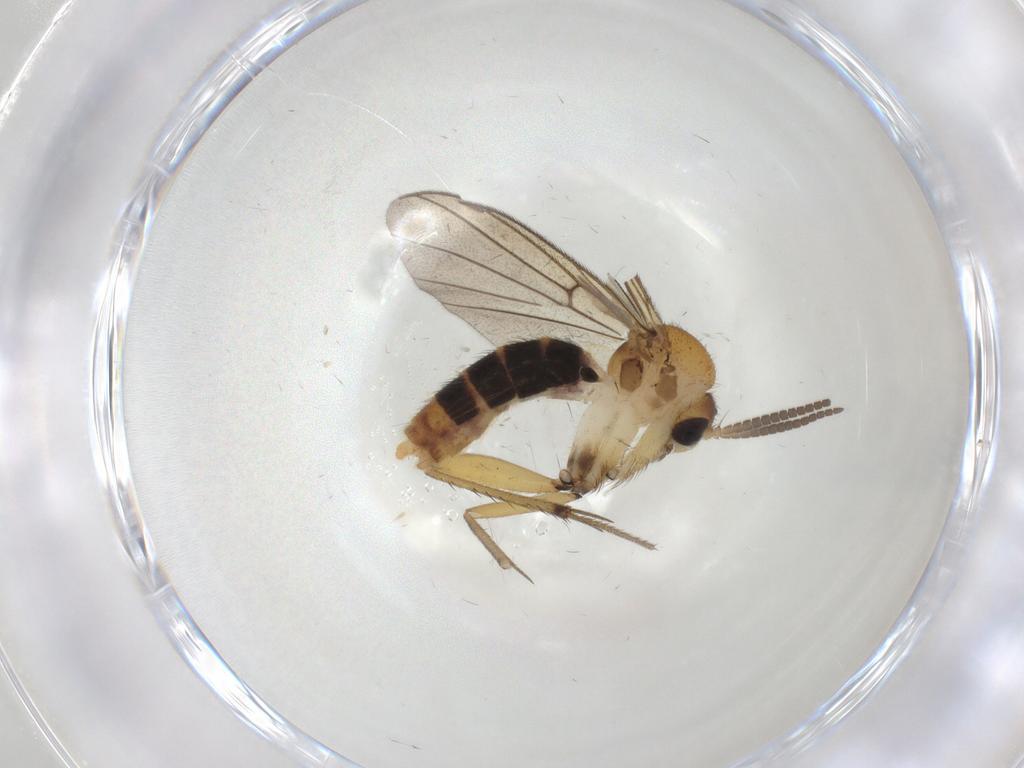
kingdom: Animalia
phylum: Arthropoda
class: Insecta
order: Diptera
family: Mycetophilidae
